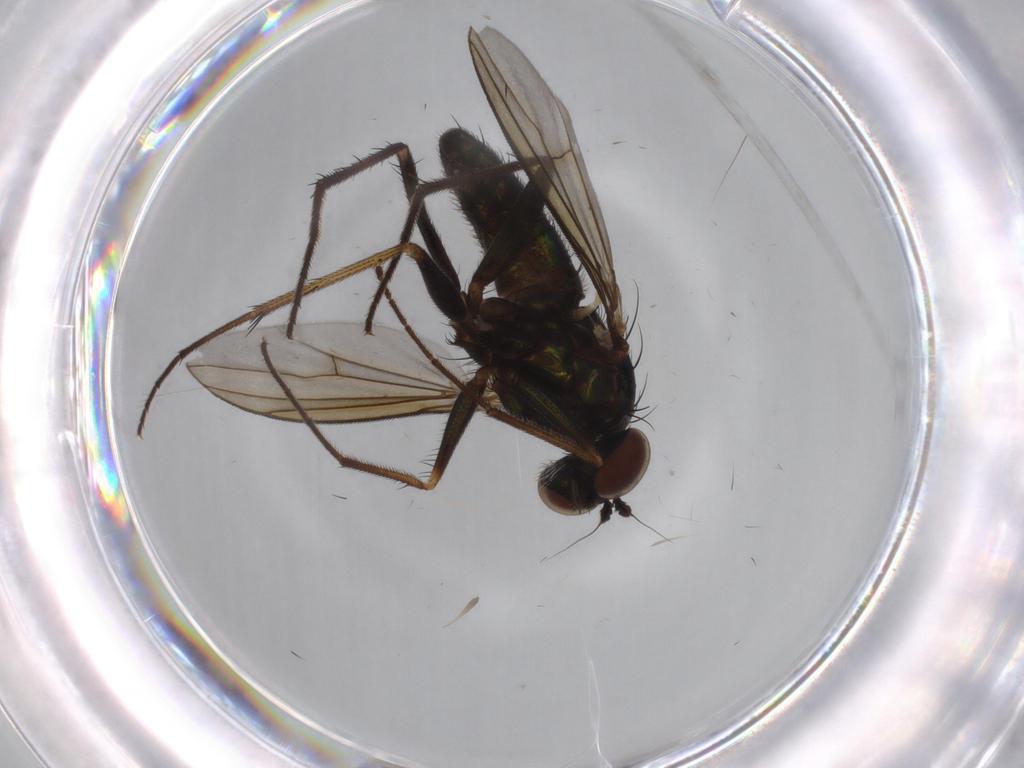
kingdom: Animalia
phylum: Arthropoda
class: Insecta
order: Diptera
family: Dolichopodidae
